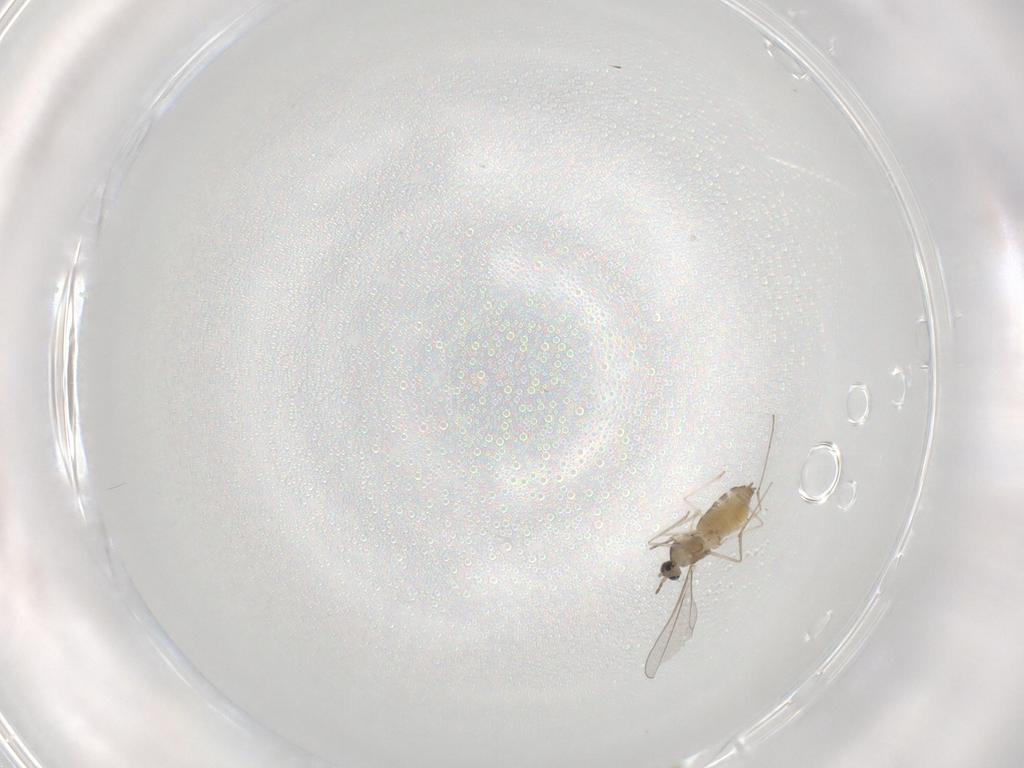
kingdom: Animalia
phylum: Arthropoda
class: Insecta
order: Diptera
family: Cecidomyiidae
